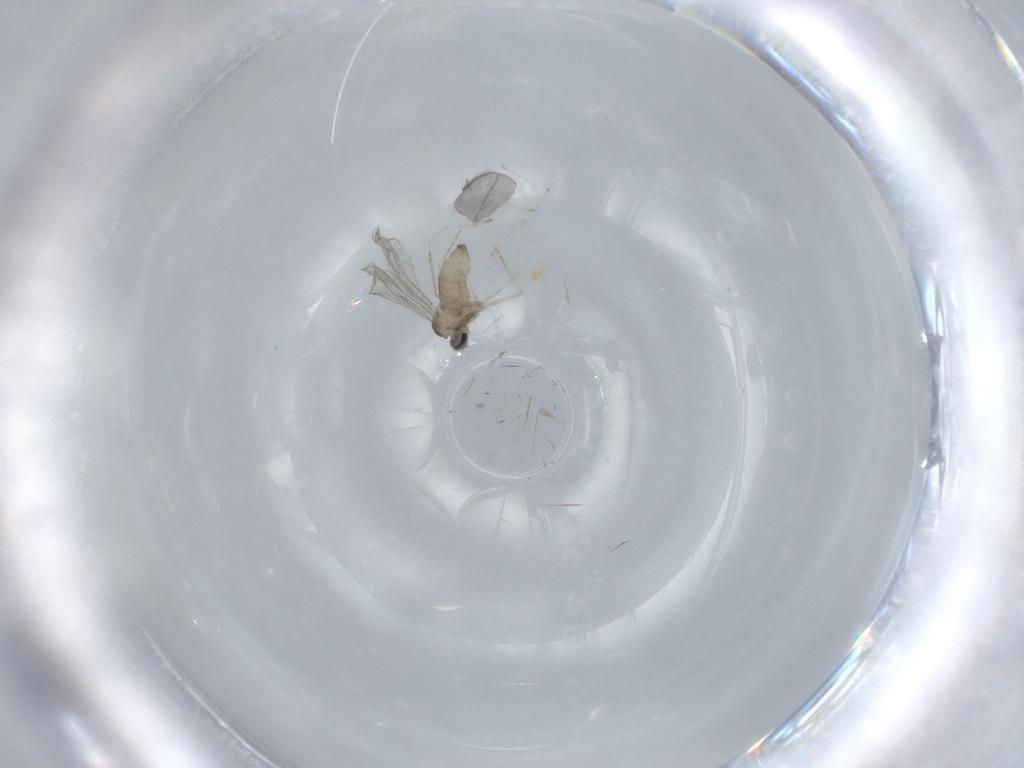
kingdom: Animalia
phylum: Arthropoda
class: Insecta
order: Diptera
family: Cecidomyiidae
